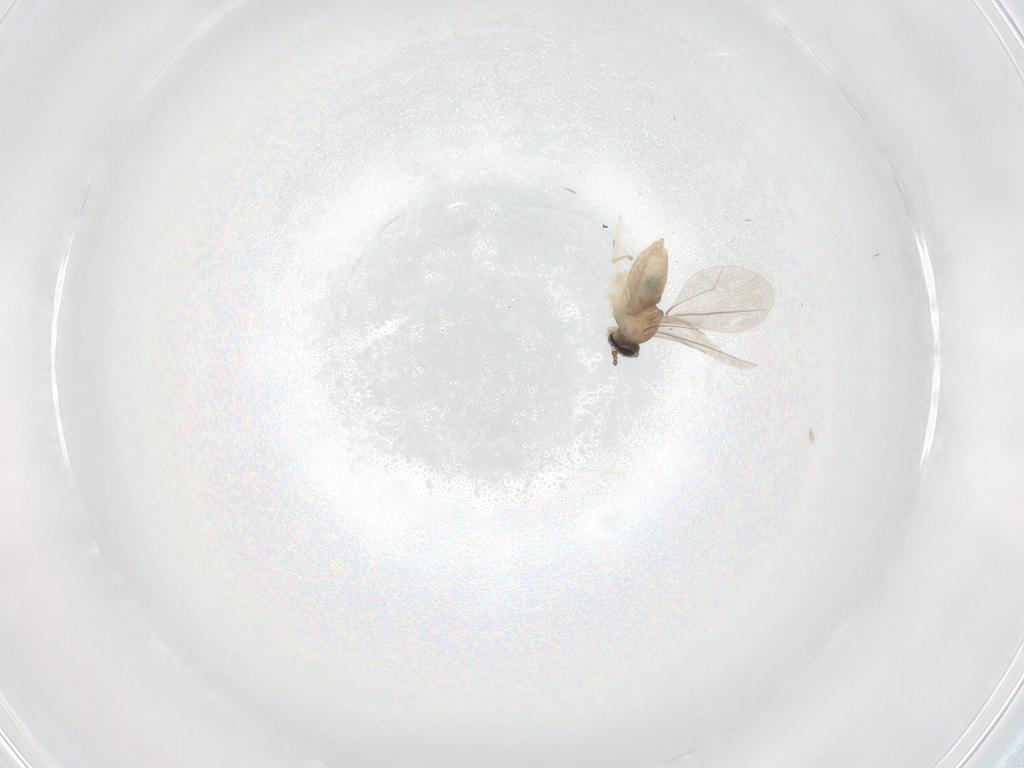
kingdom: Animalia
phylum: Arthropoda
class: Insecta
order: Diptera
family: Cecidomyiidae
